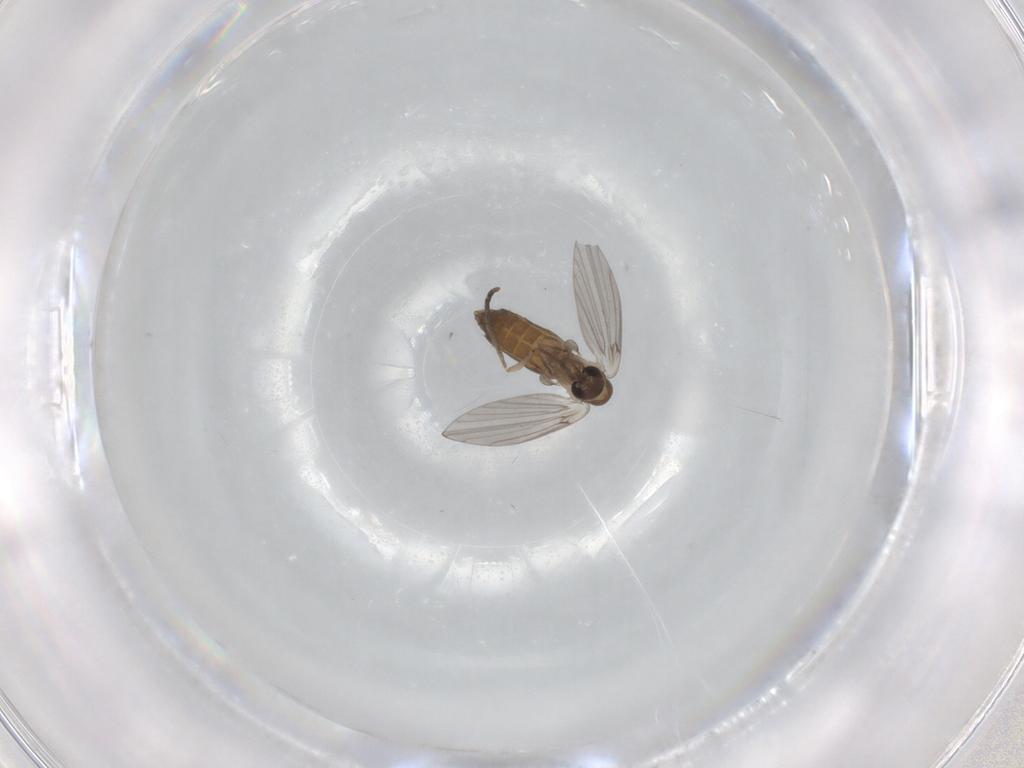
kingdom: Animalia
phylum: Arthropoda
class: Insecta
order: Diptera
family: Psychodidae
